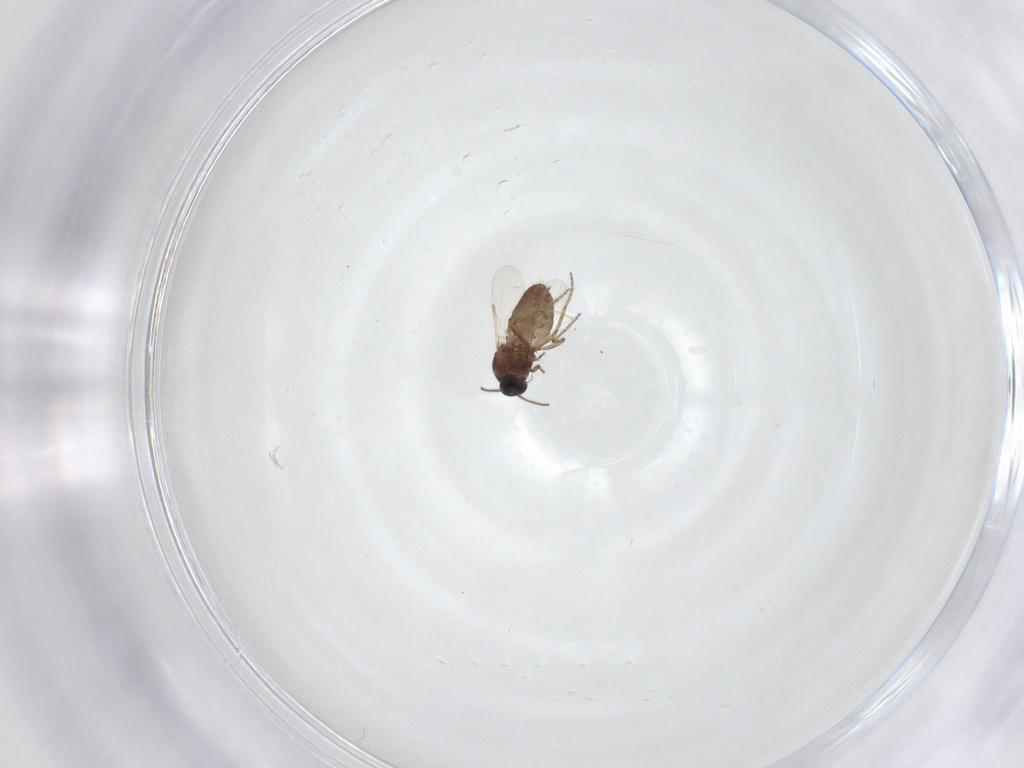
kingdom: Animalia
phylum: Arthropoda
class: Insecta
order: Diptera
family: Ceratopogonidae
